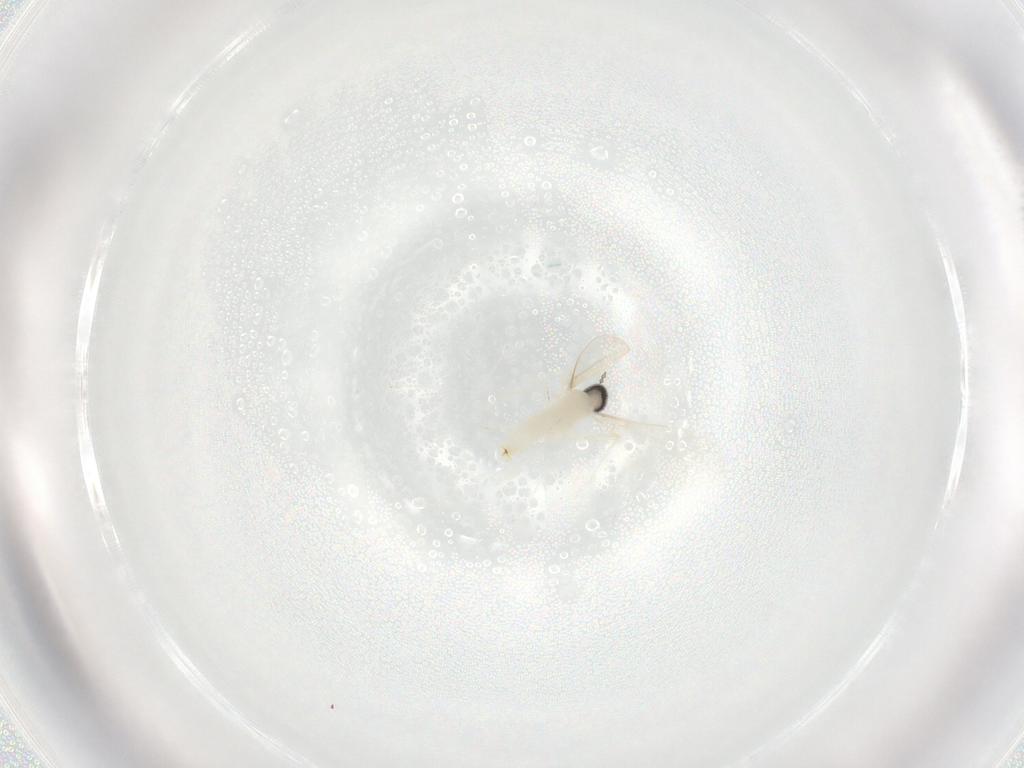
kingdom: Animalia
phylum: Arthropoda
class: Insecta
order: Diptera
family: Cecidomyiidae
